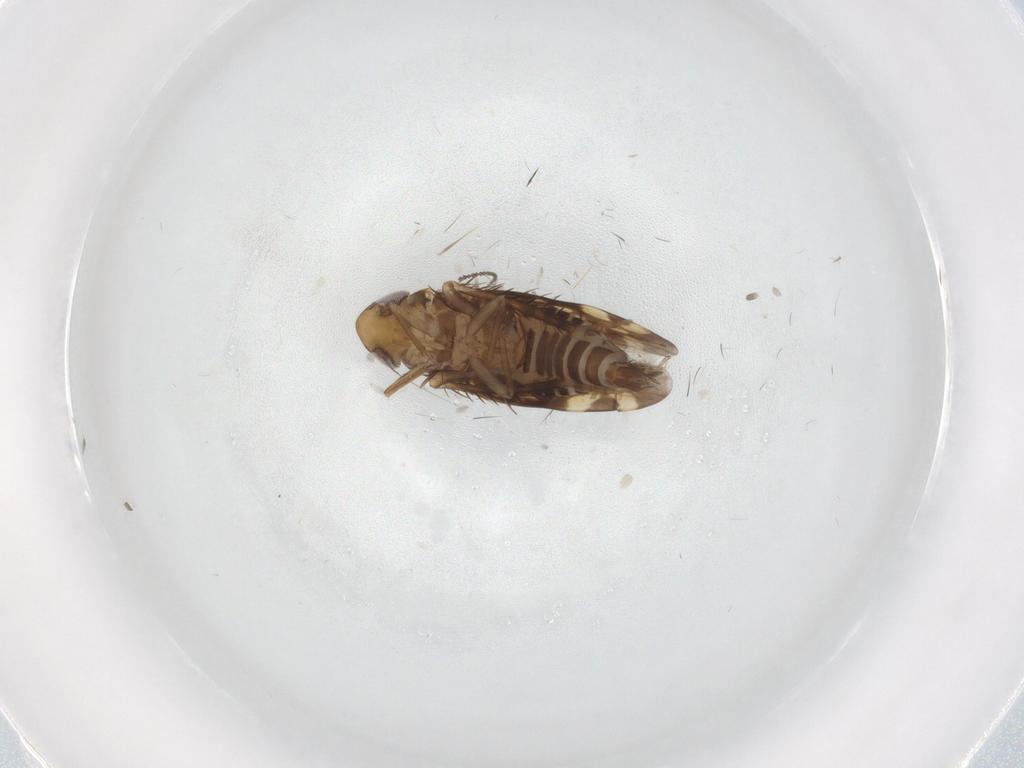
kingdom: Animalia
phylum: Arthropoda
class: Insecta
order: Hemiptera
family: Cicadellidae
